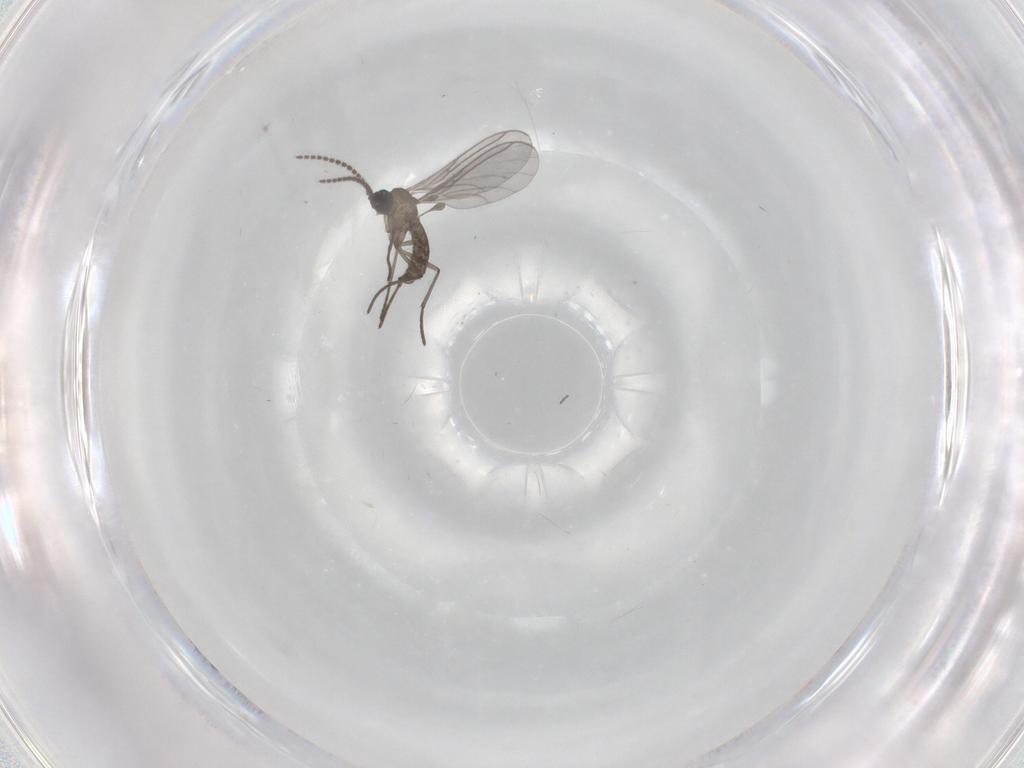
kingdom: Animalia
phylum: Arthropoda
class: Insecta
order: Diptera
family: Cecidomyiidae
